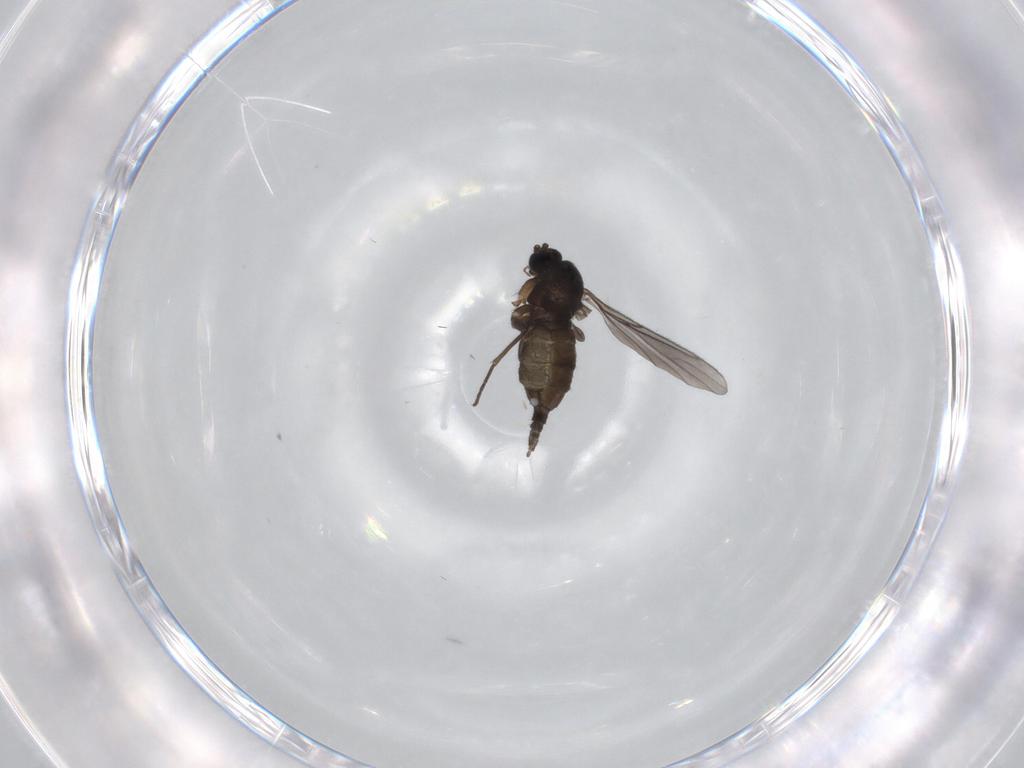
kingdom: Animalia
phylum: Arthropoda
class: Insecta
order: Diptera
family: Sciaridae
